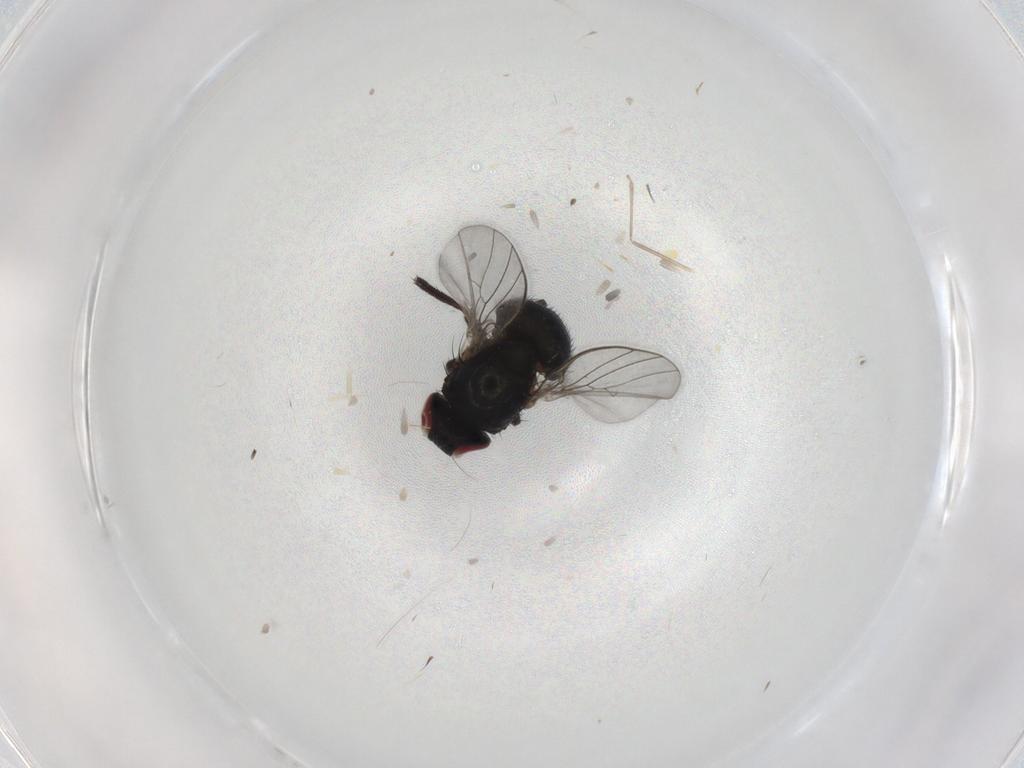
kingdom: Animalia
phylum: Arthropoda
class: Insecta
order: Diptera
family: Agromyzidae
